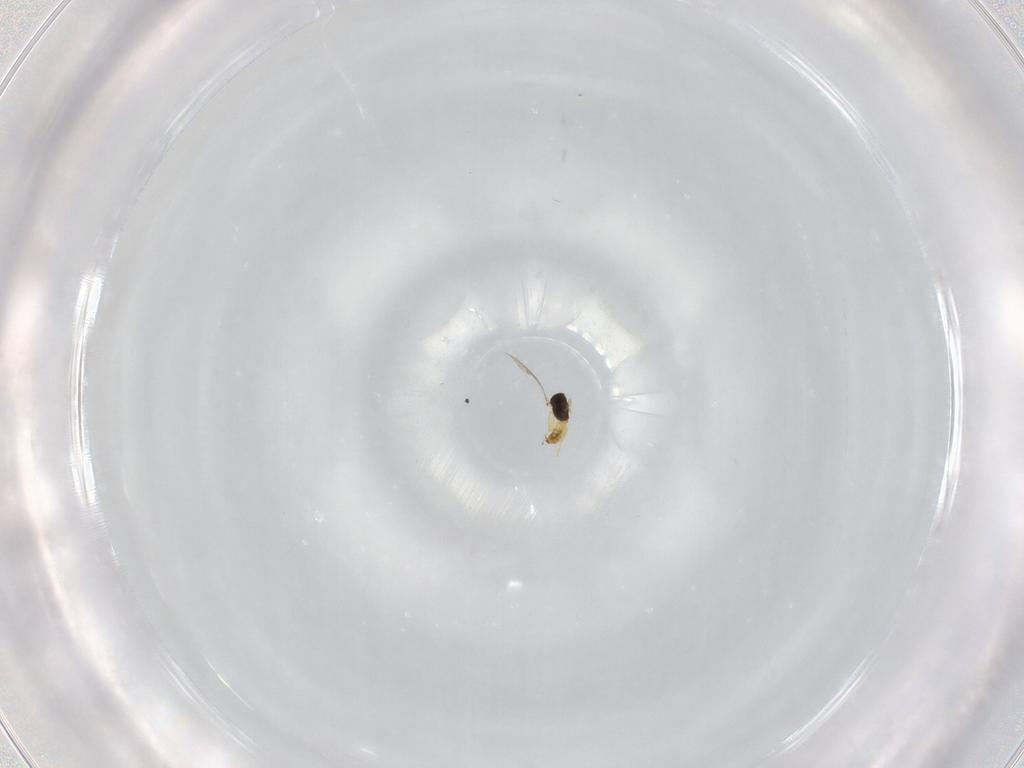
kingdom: Animalia
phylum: Arthropoda
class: Insecta
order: Hymenoptera
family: Eulophidae
